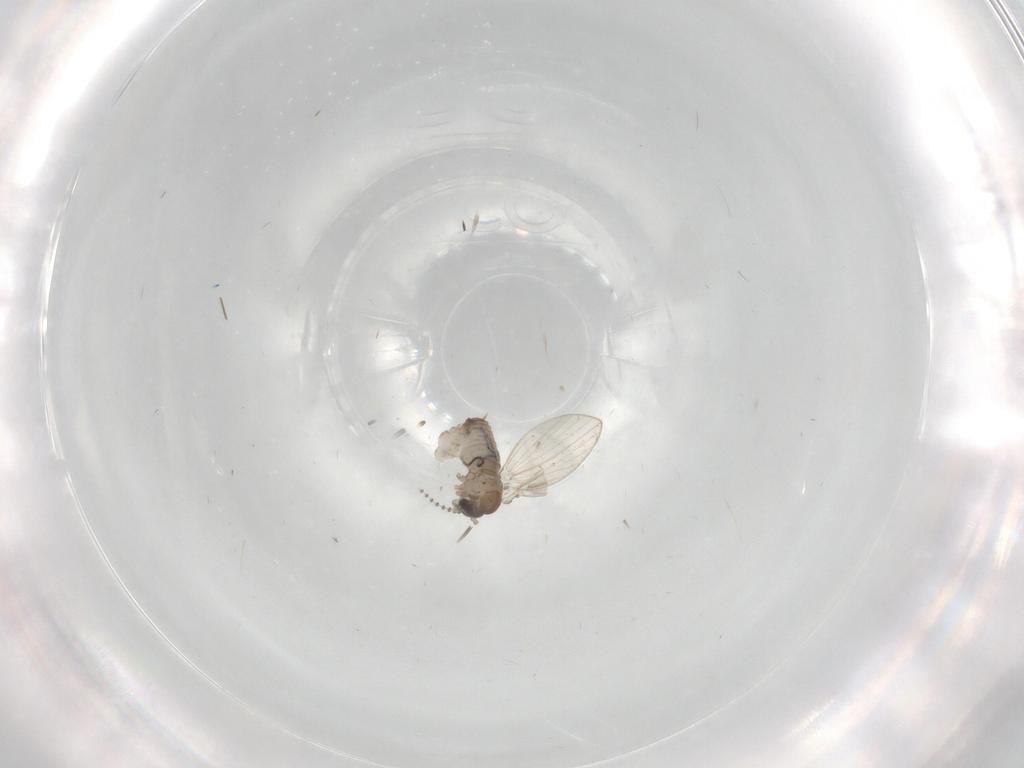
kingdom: Animalia
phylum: Arthropoda
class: Insecta
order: Diptera
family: Psychodidae
